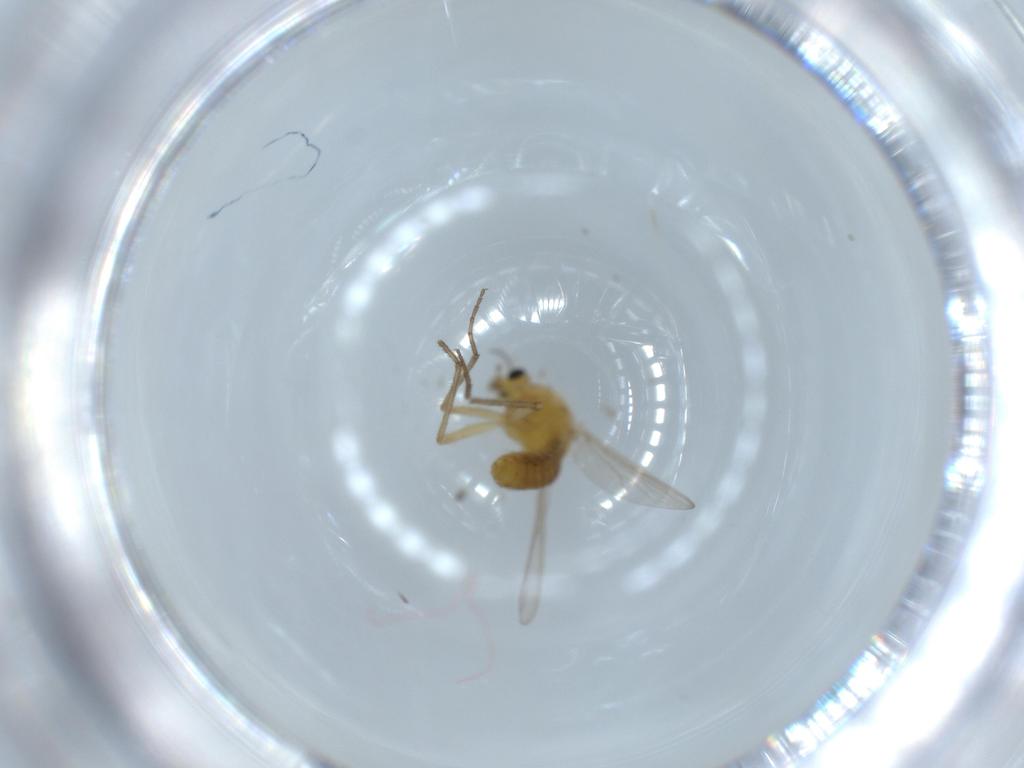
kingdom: Animalia
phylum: Arthropoda
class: Insecta
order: Diptera
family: Chironomidae
